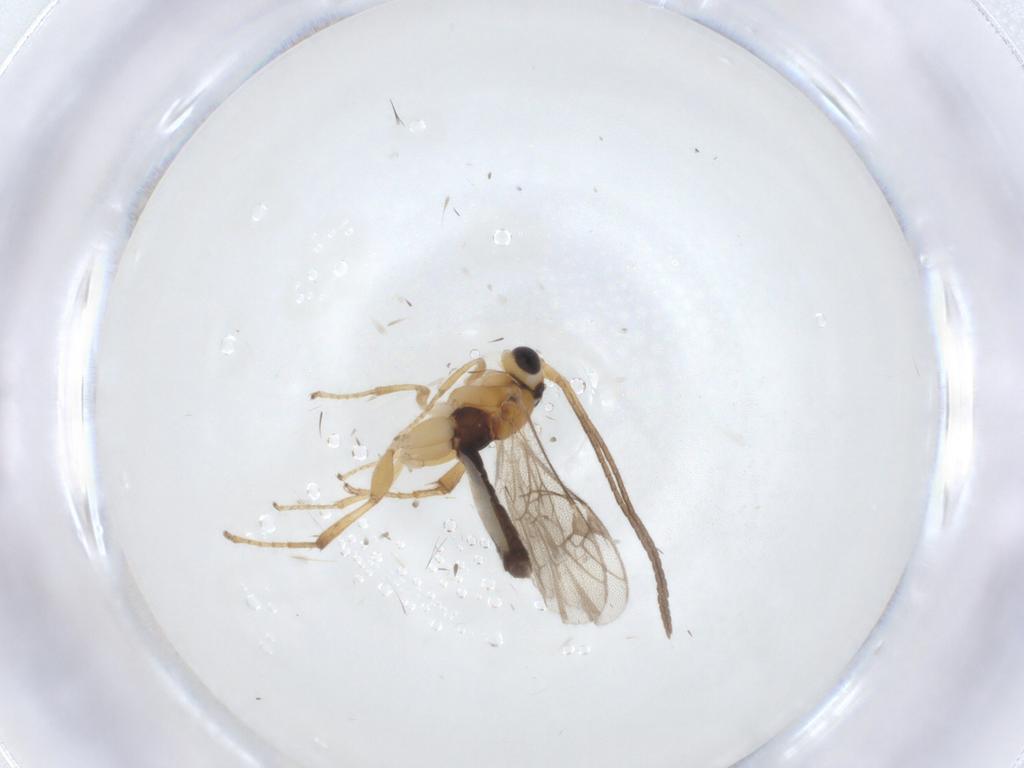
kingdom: Animalia
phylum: Arthropoda
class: Insecta
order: Hymenoptera
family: Ichneumonidae
